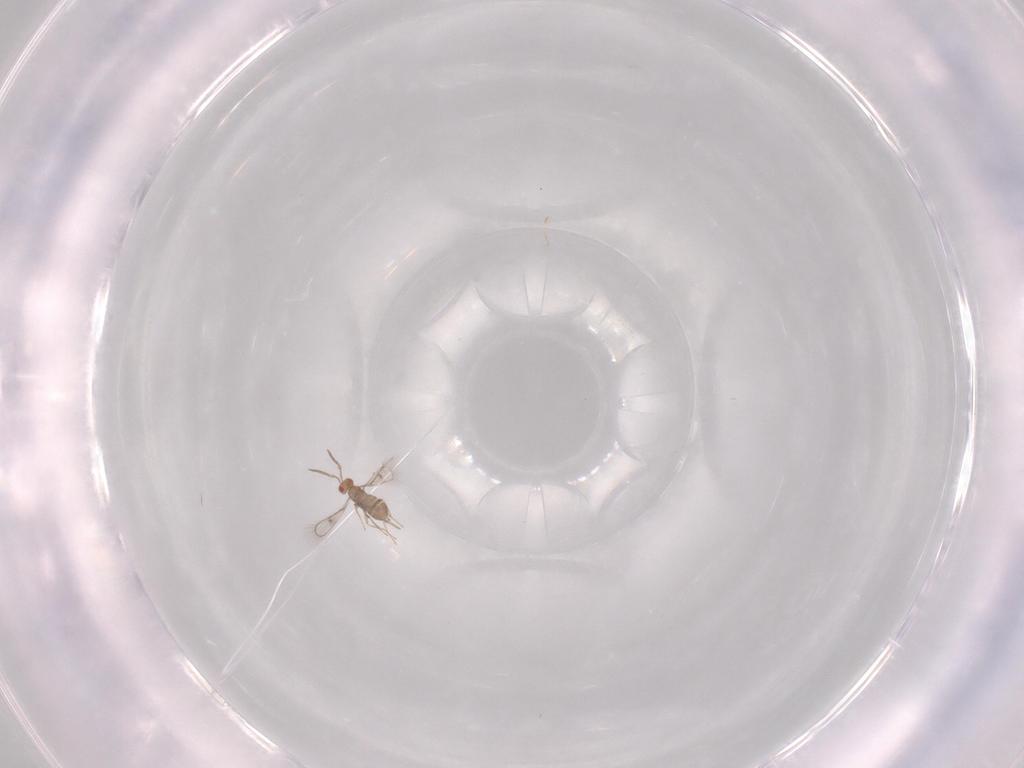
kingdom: Animalia
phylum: Arthropoda
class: Insecta
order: Hymenoptera
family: Trichogrammatidae
